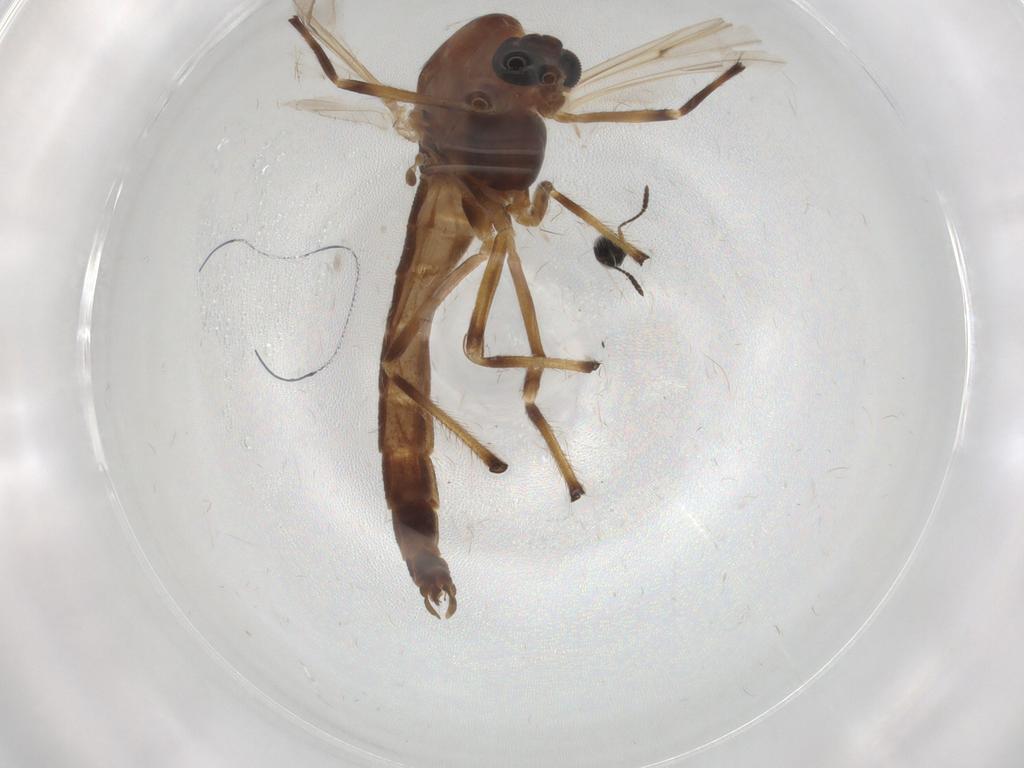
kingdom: Animalia
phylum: Arthropoda
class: Insecta
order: Diptera
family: Chironomidae
